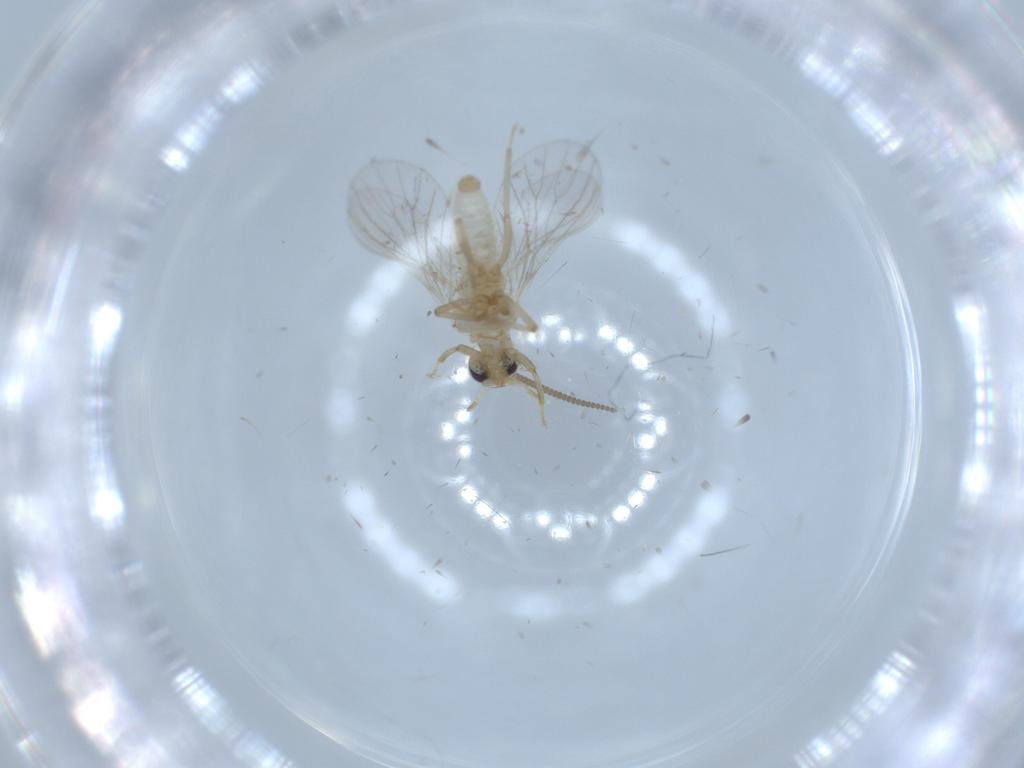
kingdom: Animalia
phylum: Arthropoda
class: Insecta
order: Neuroptera
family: Coniopterygidae
